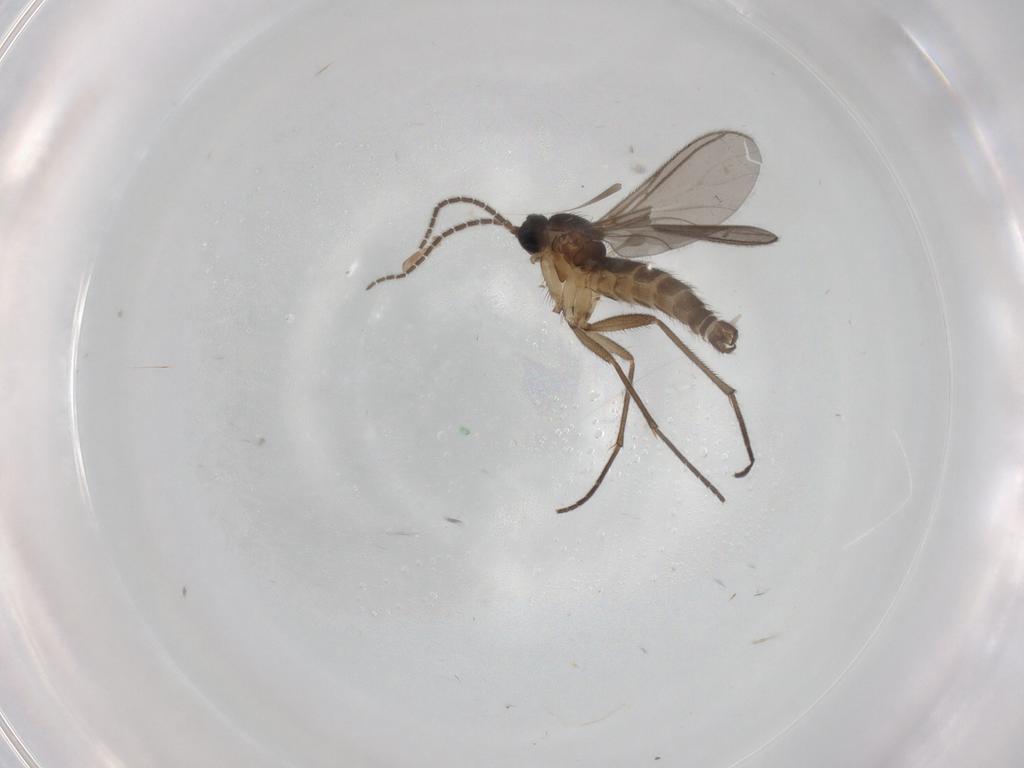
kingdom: Animalia
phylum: Arthropoda
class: Insecta
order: Diptera
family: Sciaridae
